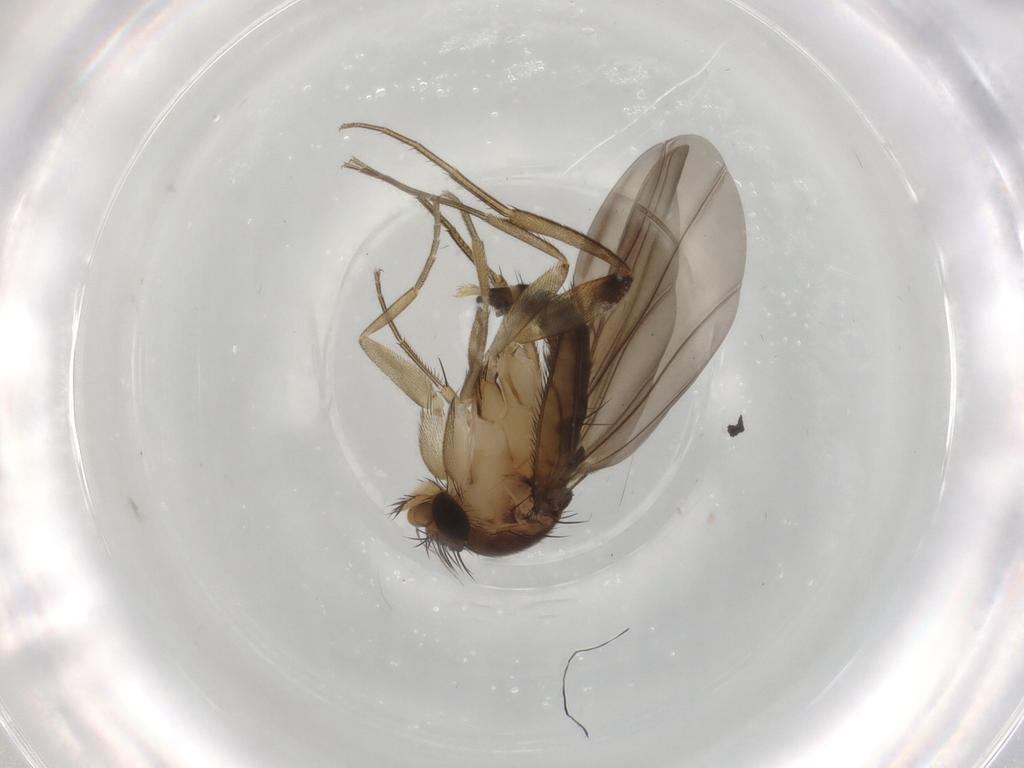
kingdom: Animalia
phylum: Arthropoda
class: Insecta
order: Diptera
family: Phoridae
